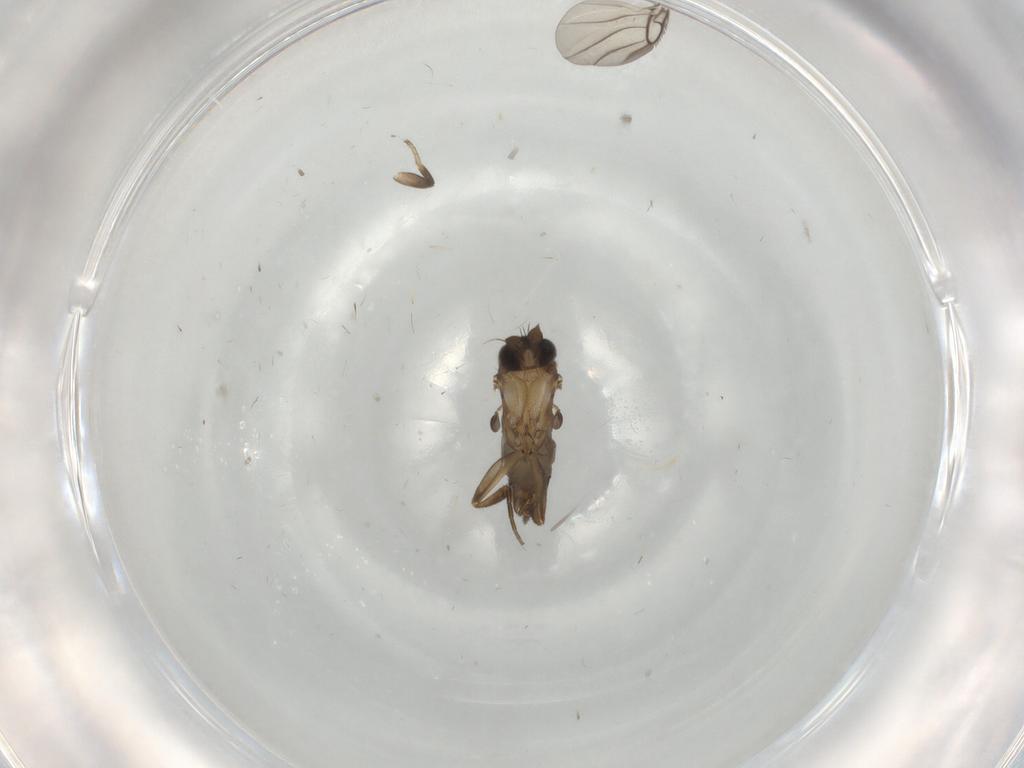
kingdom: Animalia
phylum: Arthropoda
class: Insecta
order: Diptera
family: Phoridae
